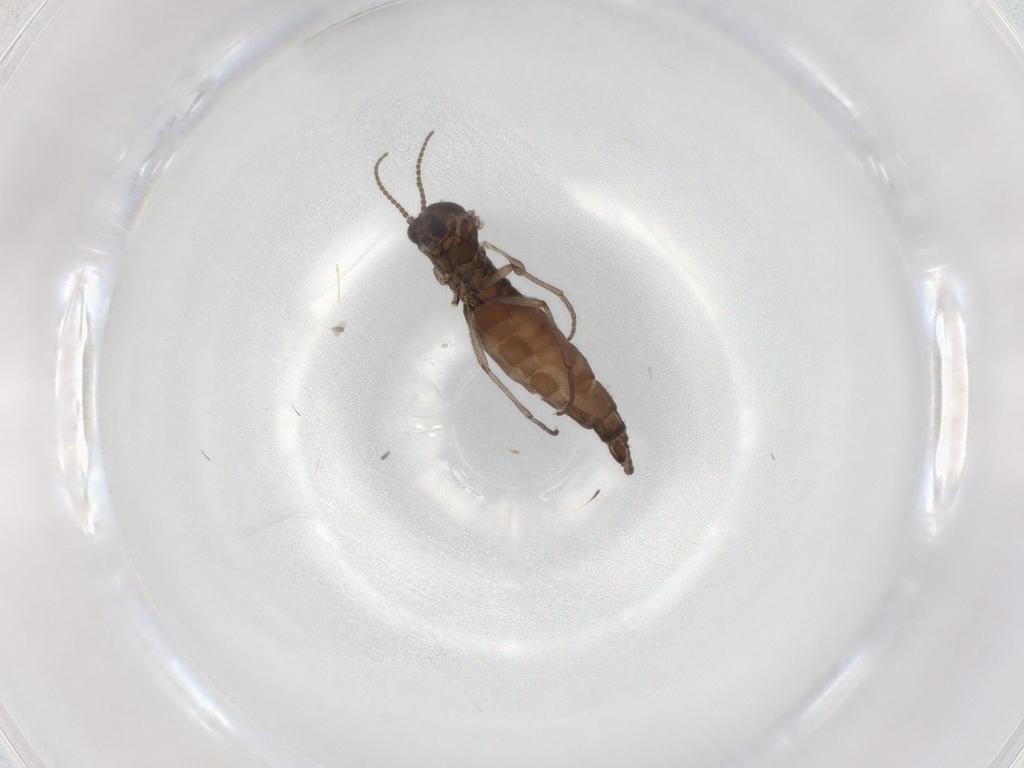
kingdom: Animalia
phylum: Arthropoda
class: Insecta
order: Diptera
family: Sciaridae
